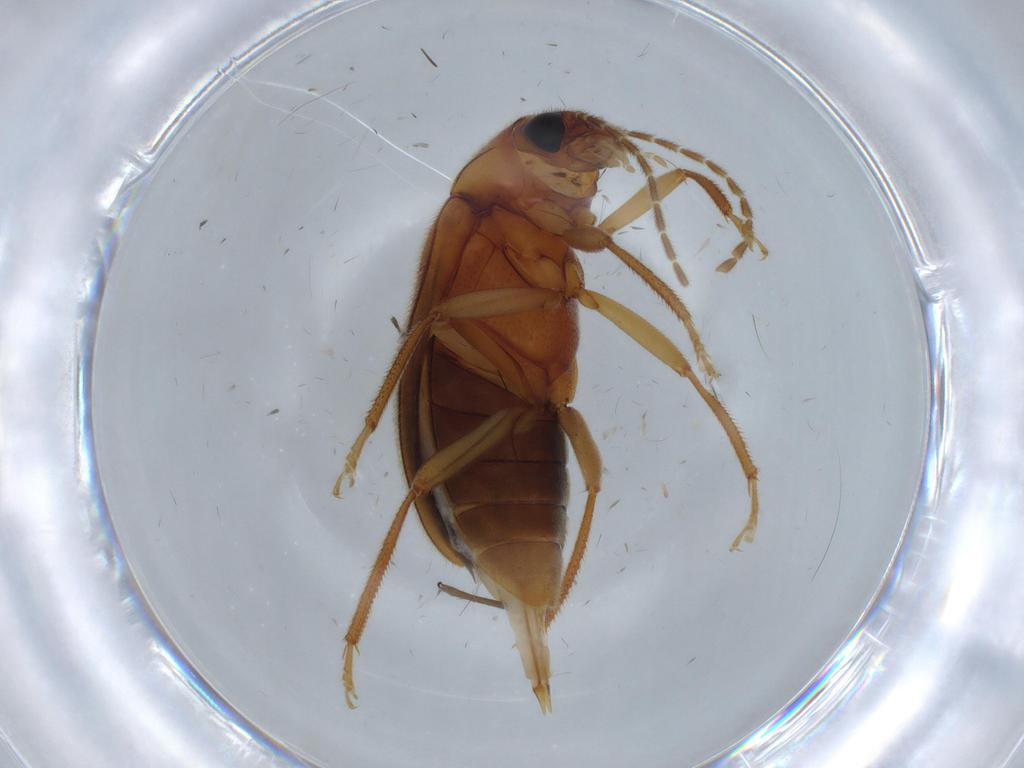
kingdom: Animalia
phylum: Arthropoda
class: Insecta
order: Coleoptera
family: Ptilodactylidae
